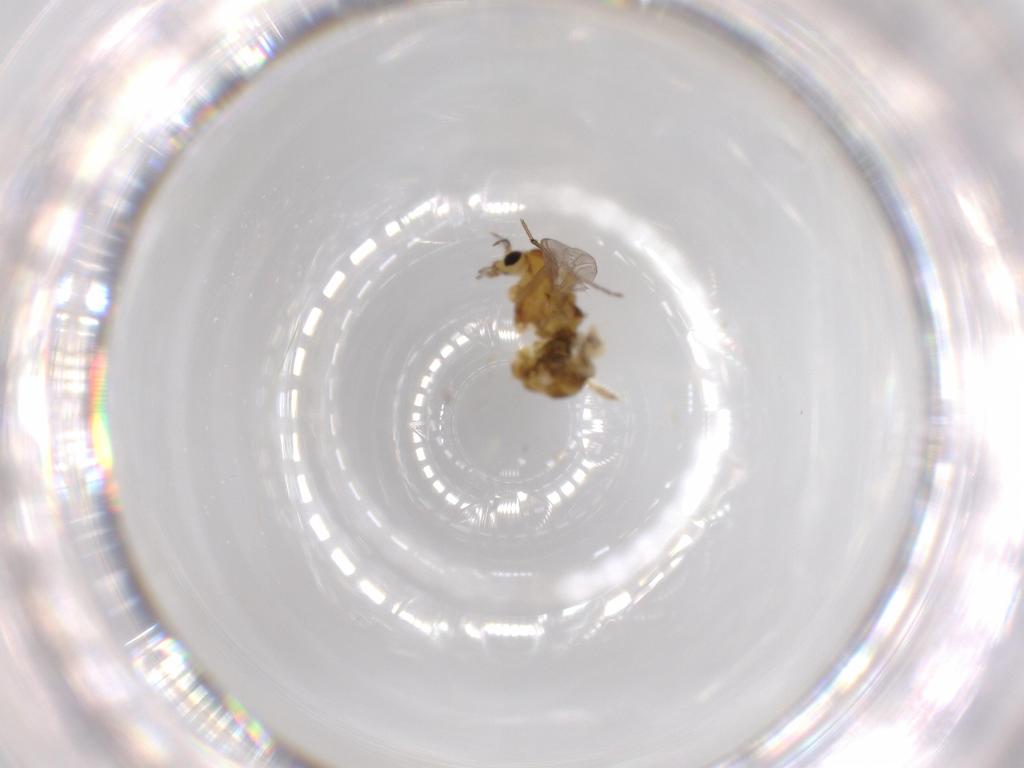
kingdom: Animalia
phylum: Arthropoda
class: Insecta
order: Diptera
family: Chironomidae
